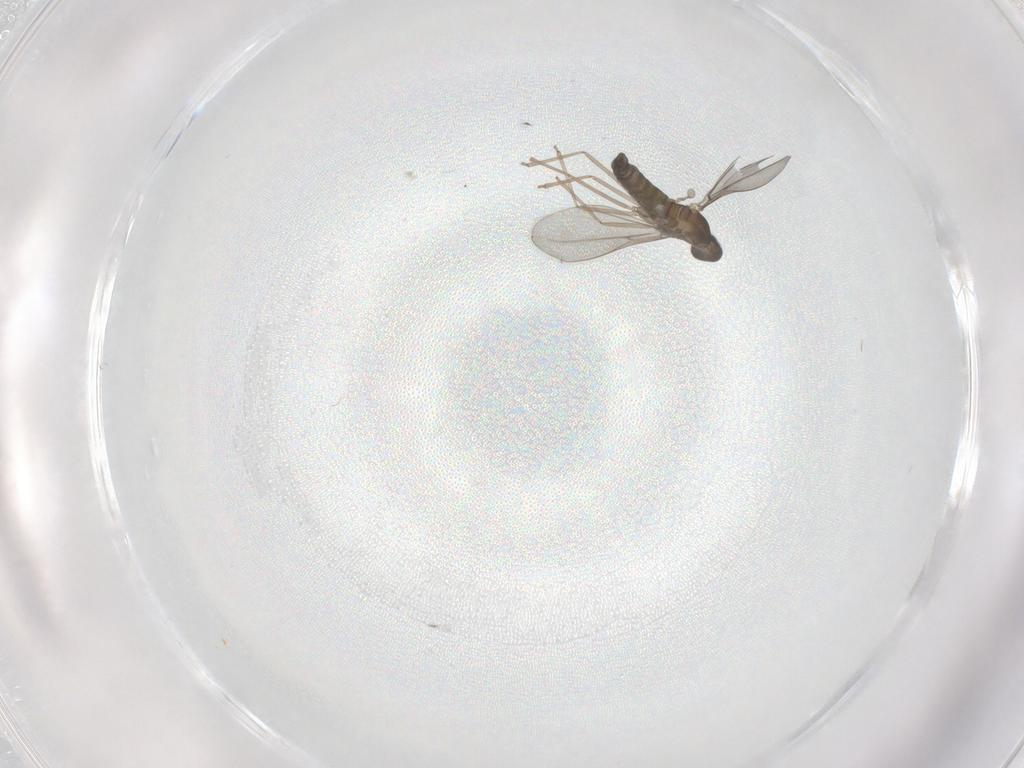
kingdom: Animalia
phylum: Arthropoda
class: Insecta
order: Diptera
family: Cecidomyiidae
